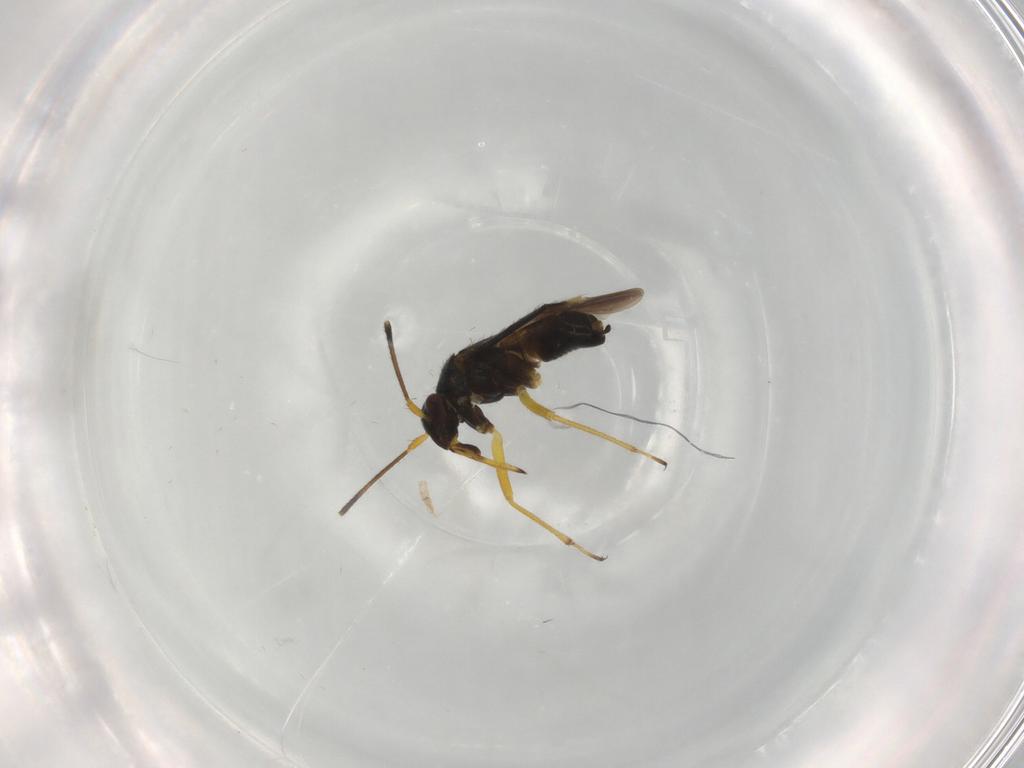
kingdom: Animalia
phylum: Arthropoda
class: Insecta
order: Hemiptera
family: Miridae
